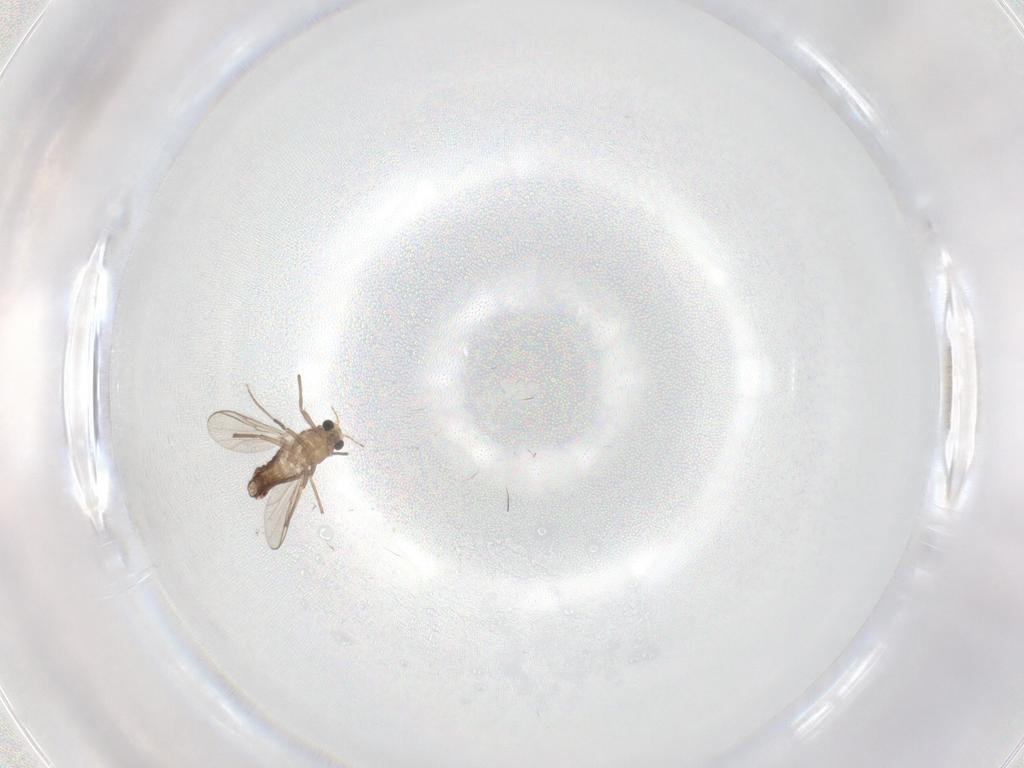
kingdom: Animalia
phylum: Arthropoda
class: Insecta
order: Diptera
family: Chironomidae
